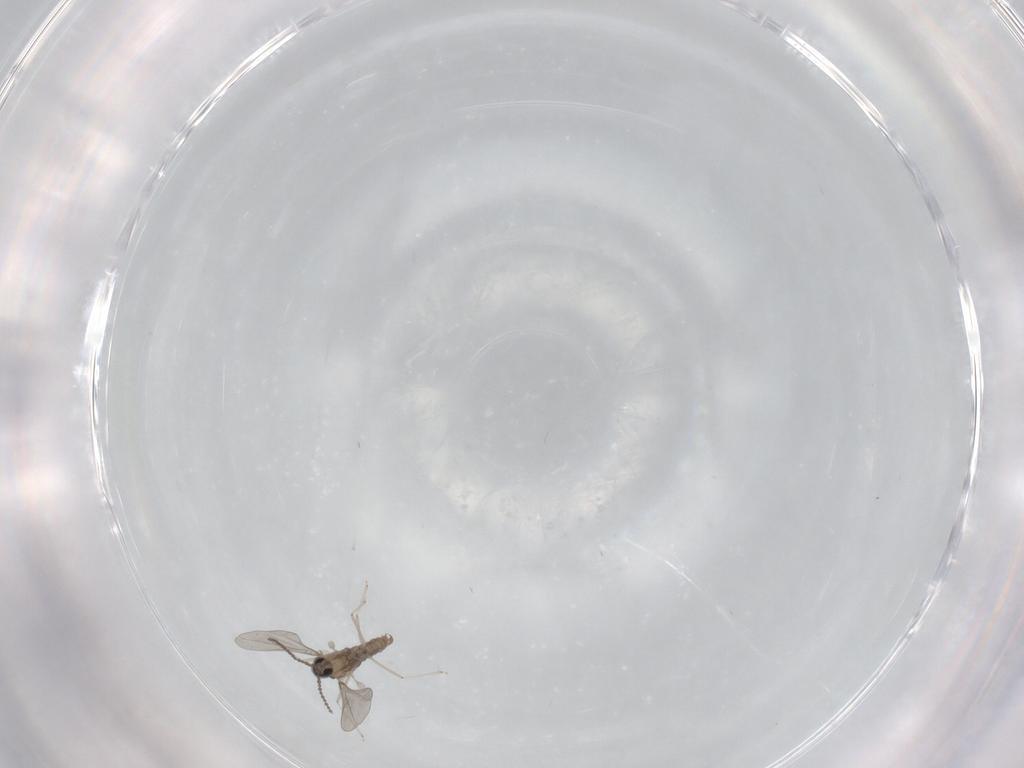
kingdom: Animalia
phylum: Arthropoda
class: Insecta
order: Diptera
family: Cecidomyiidae
